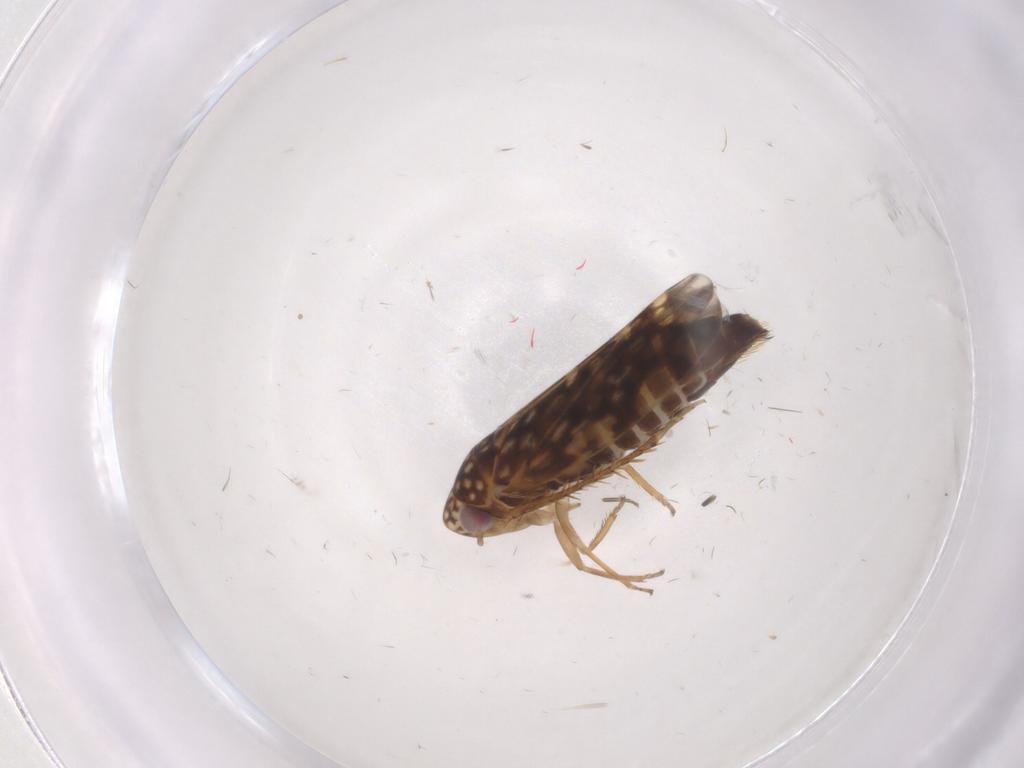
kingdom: Animalia
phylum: Arthropoda
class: Insecta
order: Hemiptera
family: Cicadellidae
